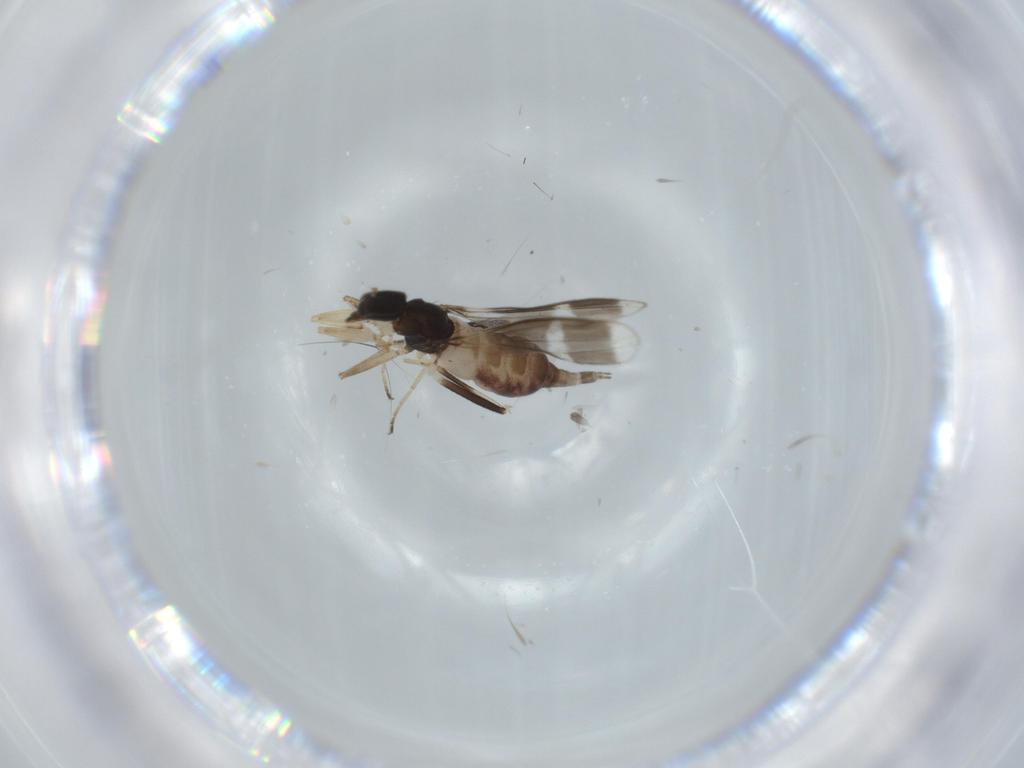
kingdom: Animalia
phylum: Arthropoda
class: Insecta
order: Diptera
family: Hybotidae
